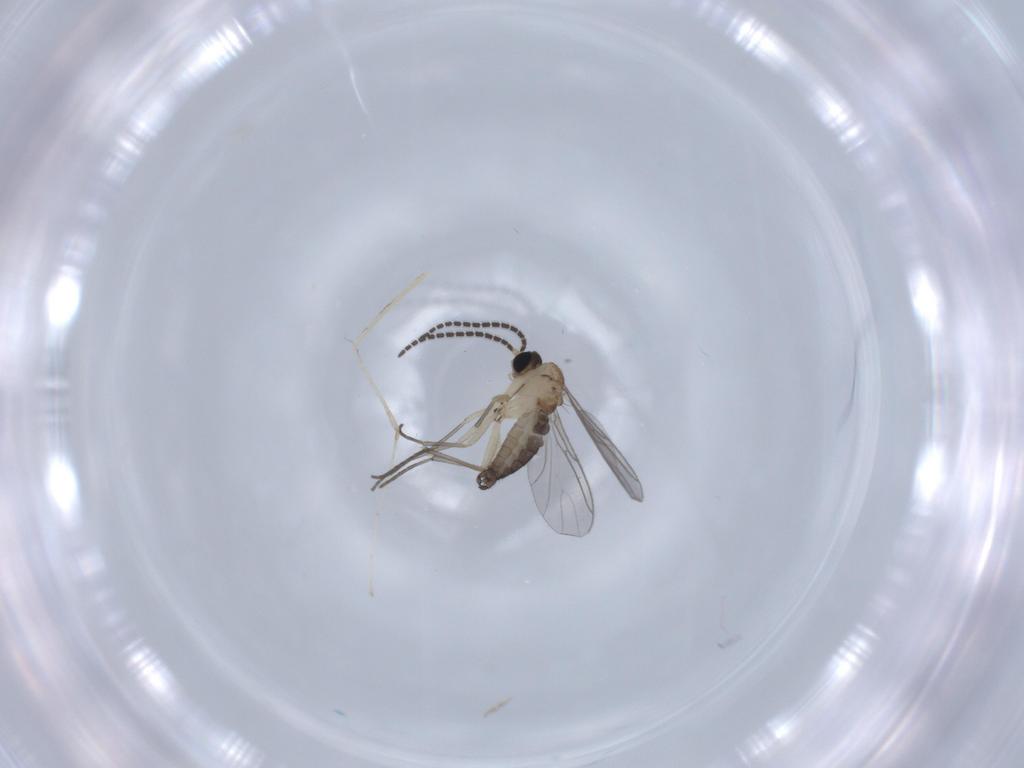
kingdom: Animalia
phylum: Arthropoda
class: Insecta
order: Diptera
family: Sciaridae
